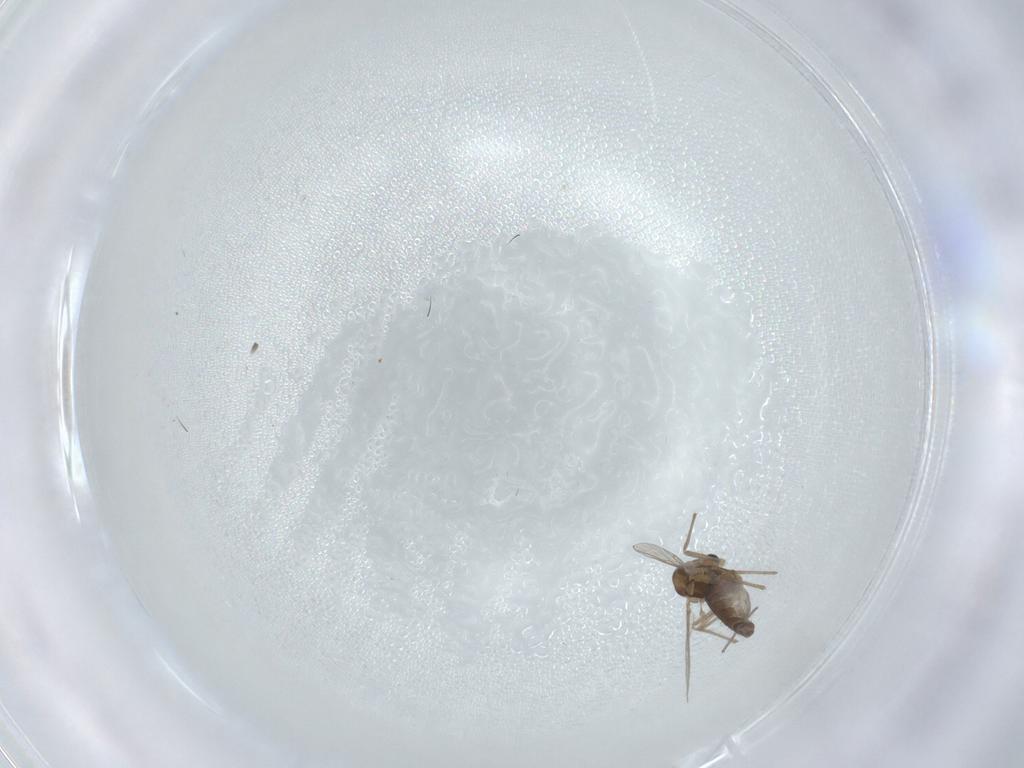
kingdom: Animalia
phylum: Arthropoda
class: Insecta
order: Diptera
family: Chironomidae
